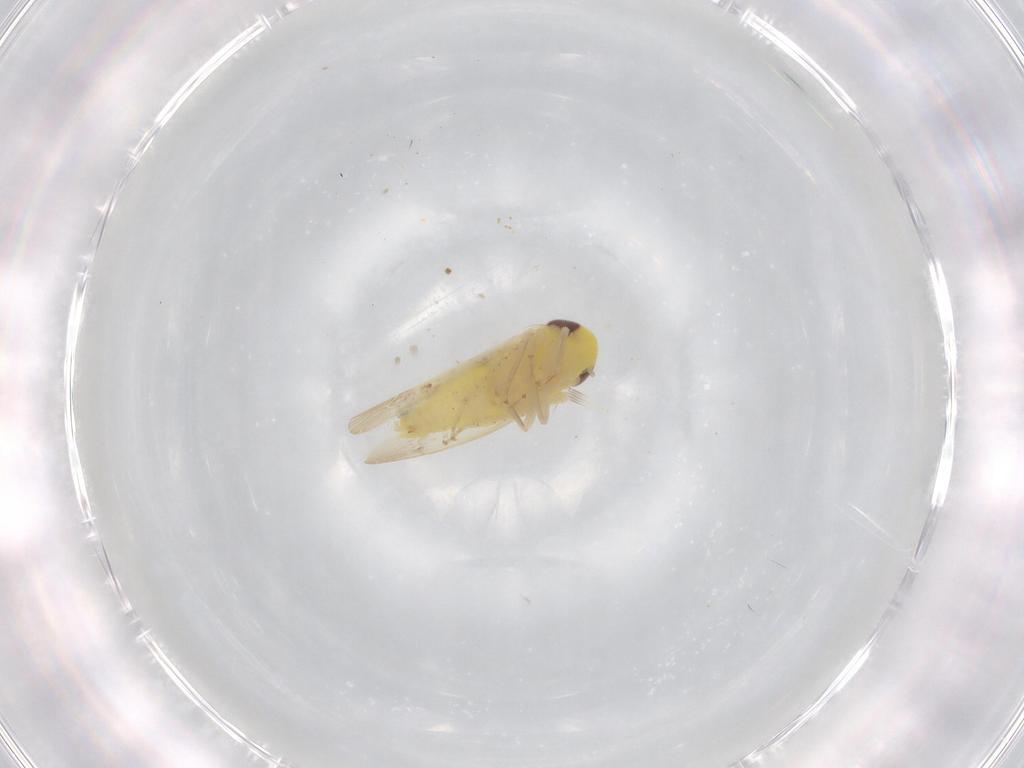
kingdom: Animalia
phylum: Arthropoda
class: Insecta
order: Hemiptera
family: Cicadellidae
